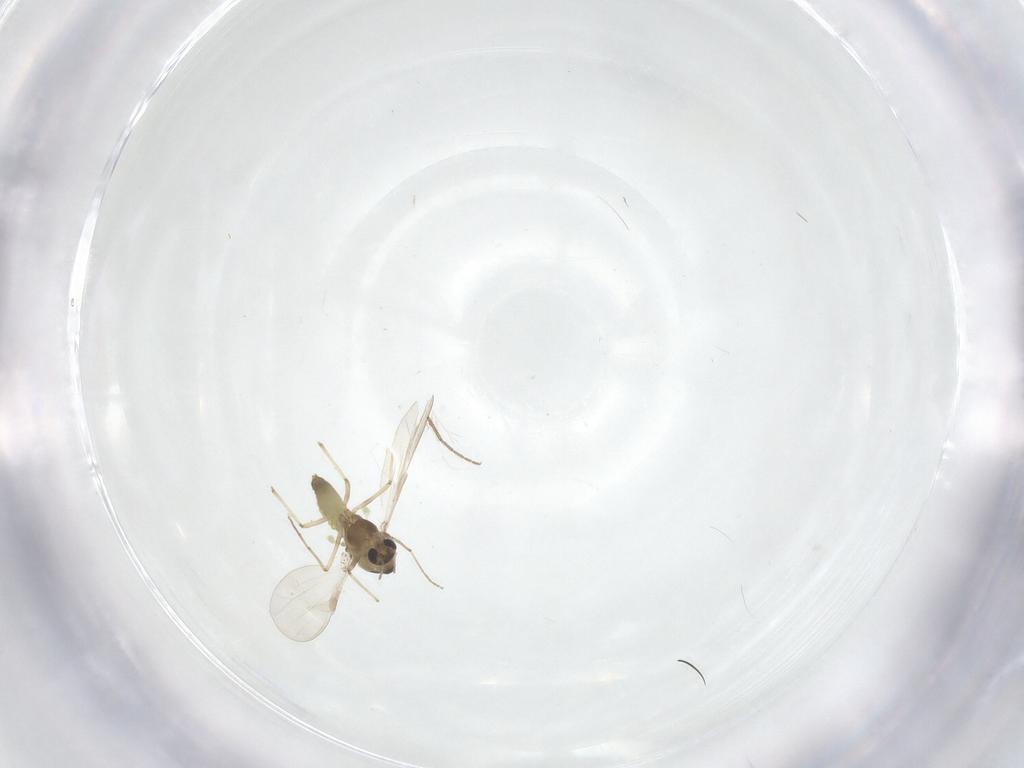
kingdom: Animalia
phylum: Arthropoda
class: Insecta
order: Diptera
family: Chironomidae
